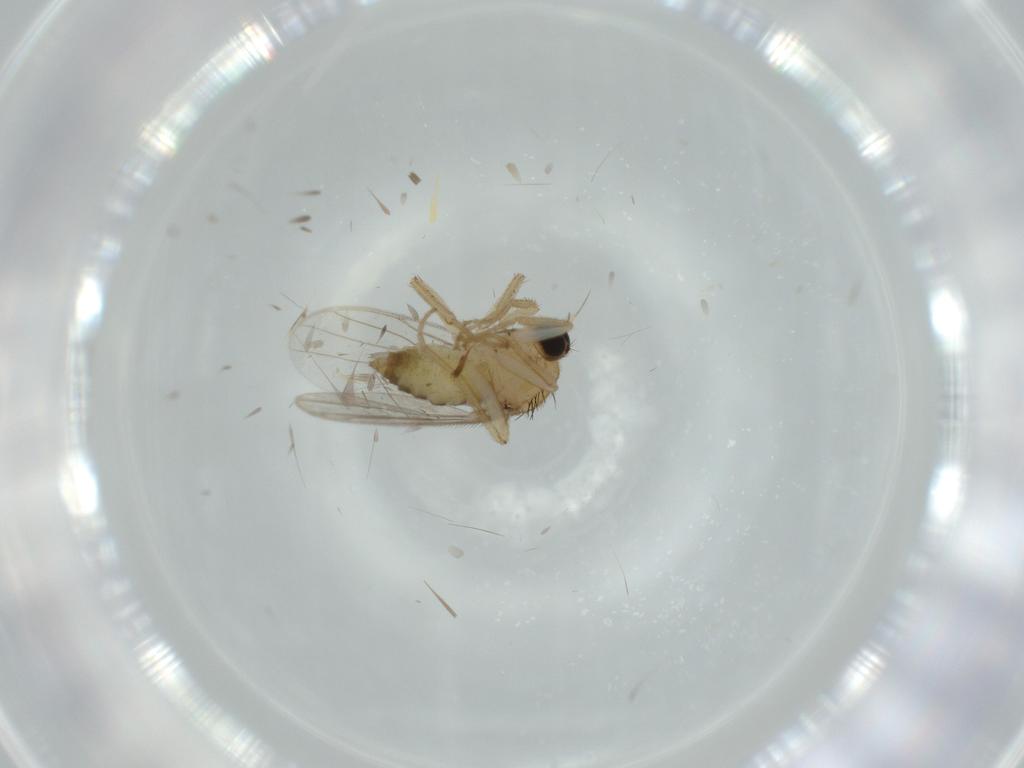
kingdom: Animalia
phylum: Arthropoda
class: Insecta
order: Diptera
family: Hybotidae
